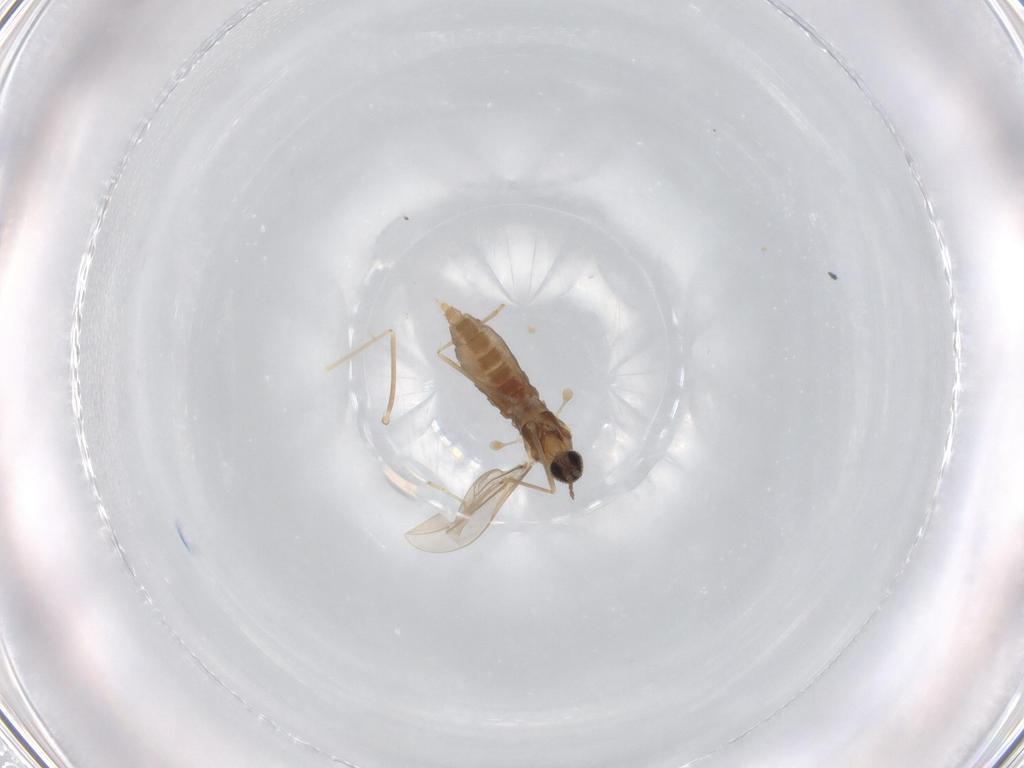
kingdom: Animalia
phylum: Arthropoda
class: Insecta
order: Diptera
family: Cecidomyiidae
